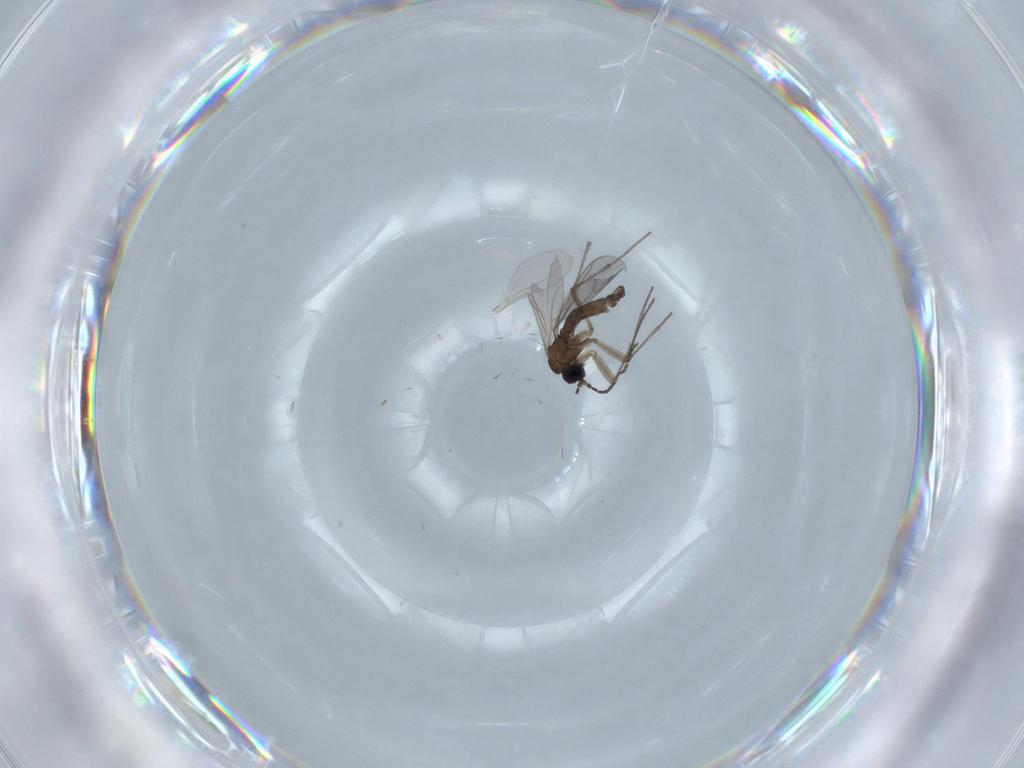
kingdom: Animalia
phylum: Arthropoda
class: Insecta
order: Diptera
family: Sciaridae
